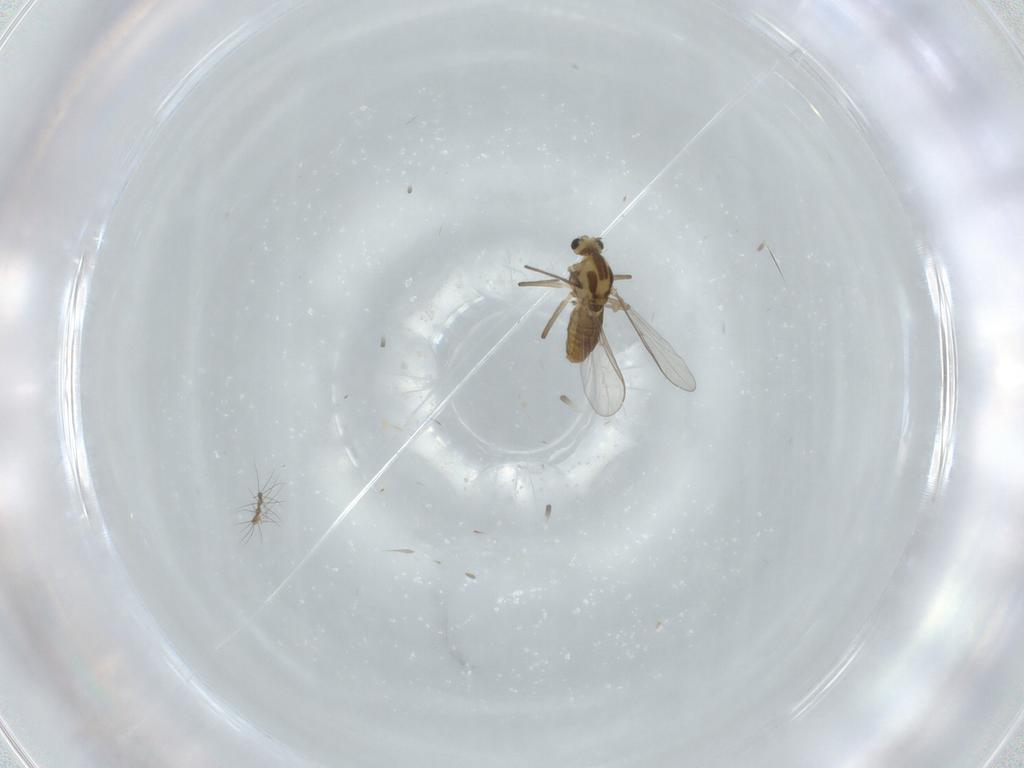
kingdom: Animalia
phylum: Arthropoda
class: Insecta
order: Diptera
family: Chironomidae
